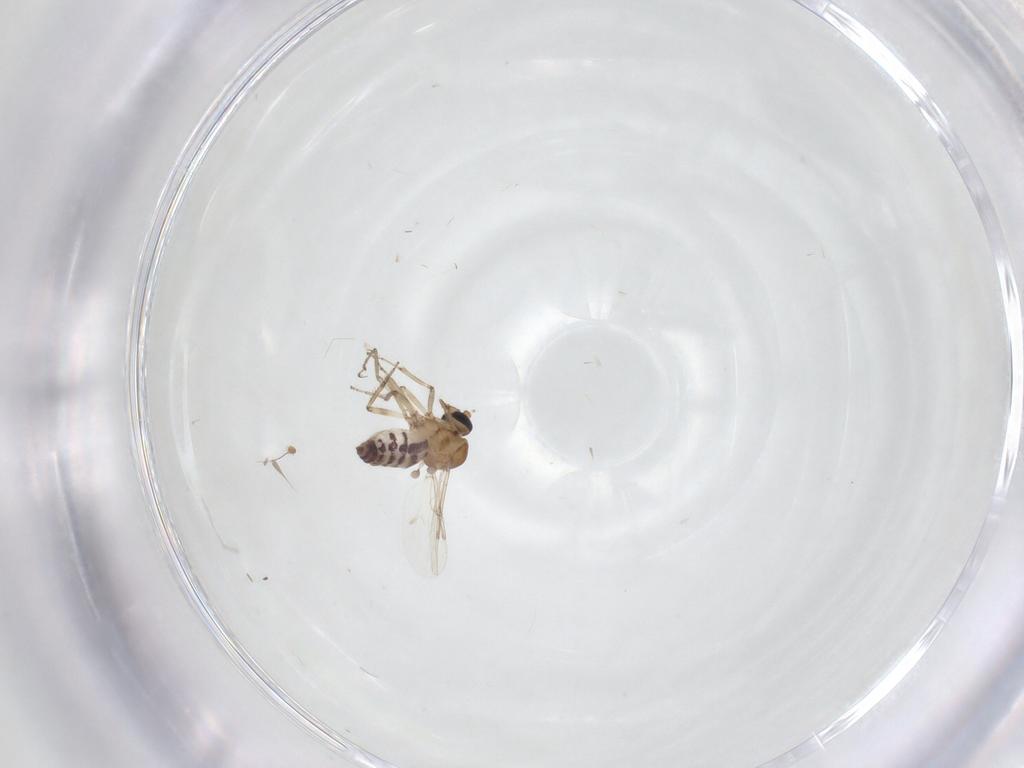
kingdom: Animalia
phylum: Arthropoda
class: Insecta
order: Diptera
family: Ceratopogonidae
